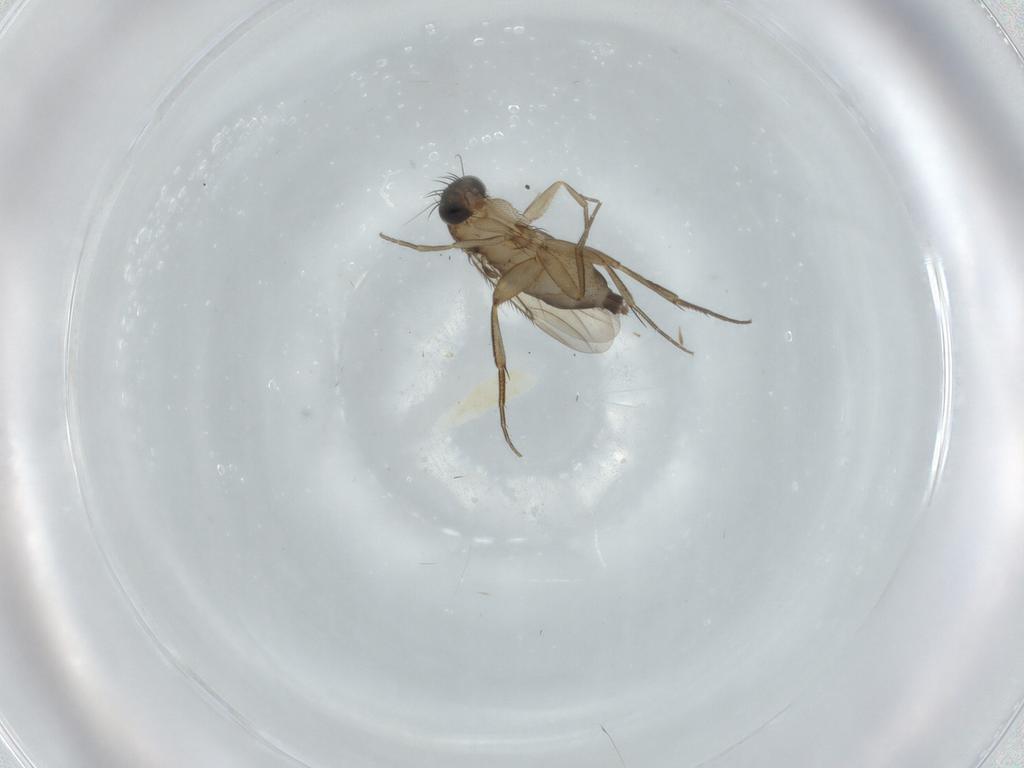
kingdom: Animalia
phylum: Arthropoda
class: Insecta
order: Diptera
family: Phoridae
